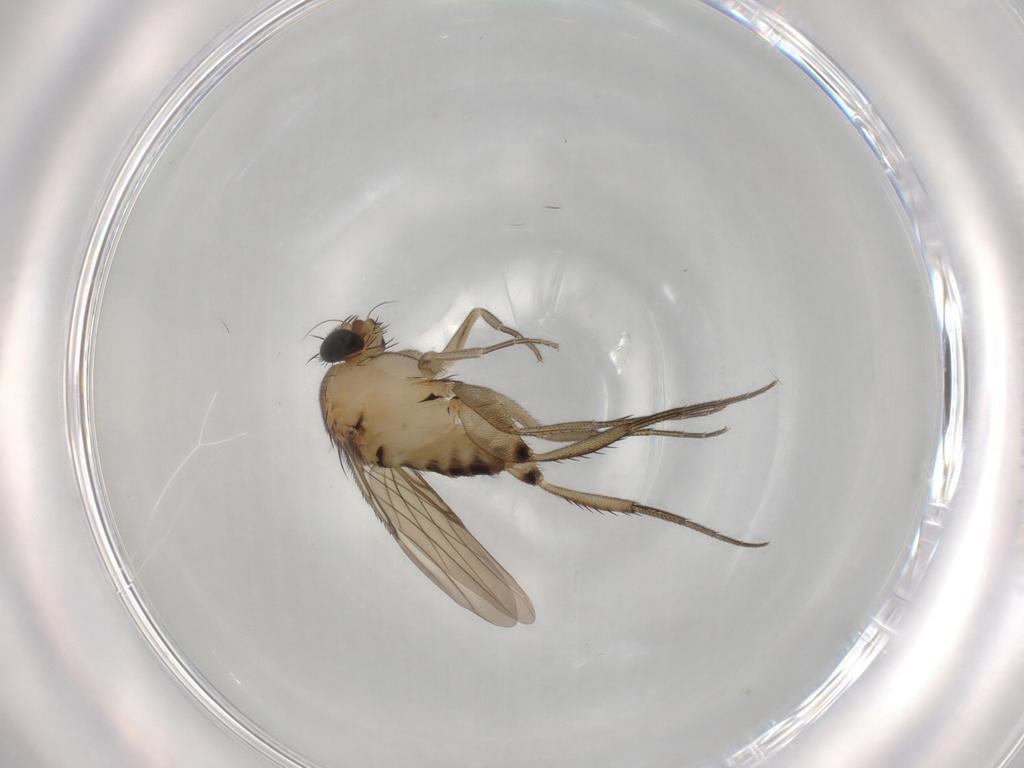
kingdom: Animalia
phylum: Arthropoda
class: Insecta
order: Diptera
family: Phoridae
